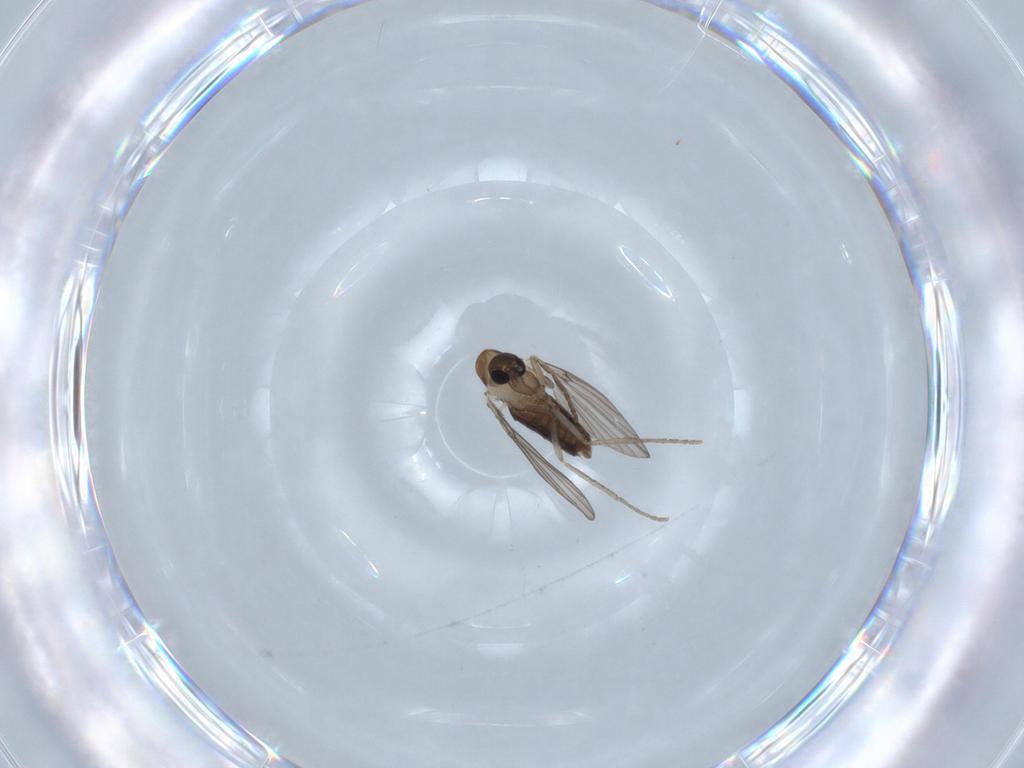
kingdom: Animalia
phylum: Arthropoda
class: Insecta
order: Diptera
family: Psychodidae
